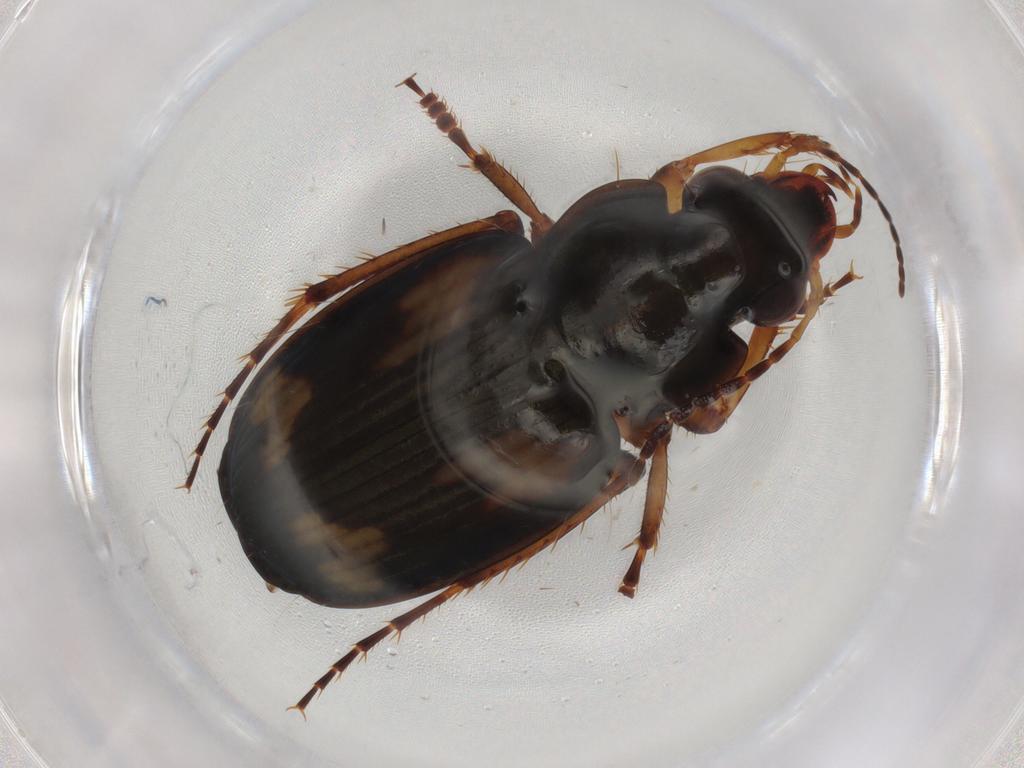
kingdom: Animalia
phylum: Arthropoda
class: Insecta
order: Coleoptera
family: Carabidae
